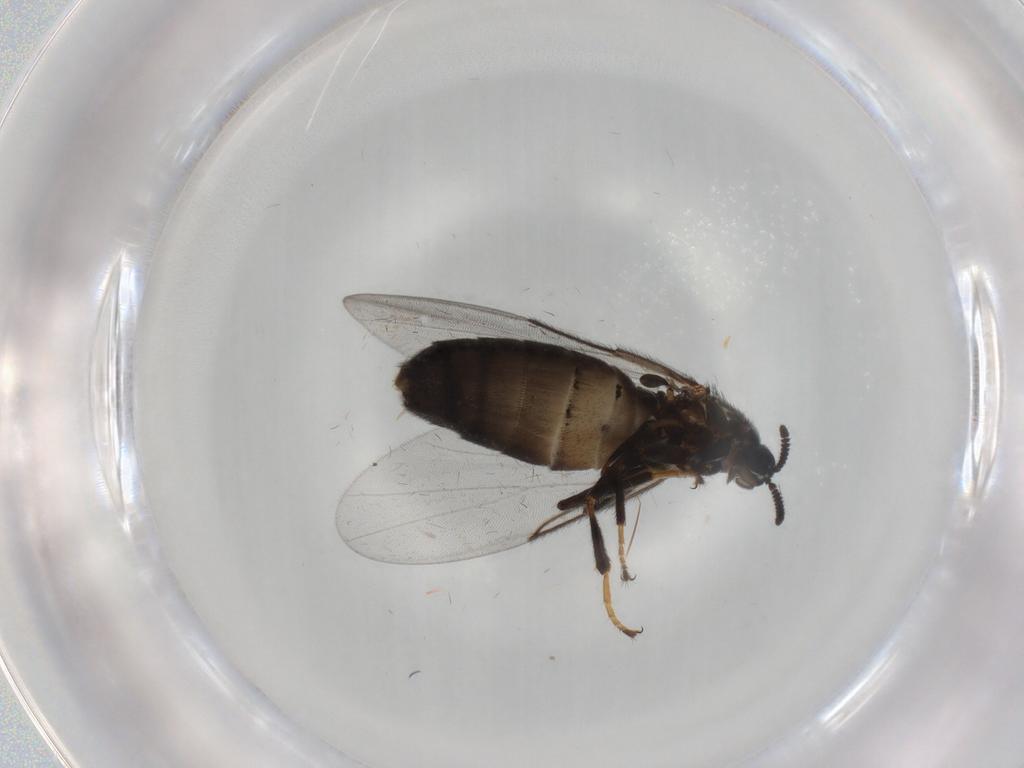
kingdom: Animalia
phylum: Arthropoda
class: Insecta
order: Diptera
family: Scatopsidae
